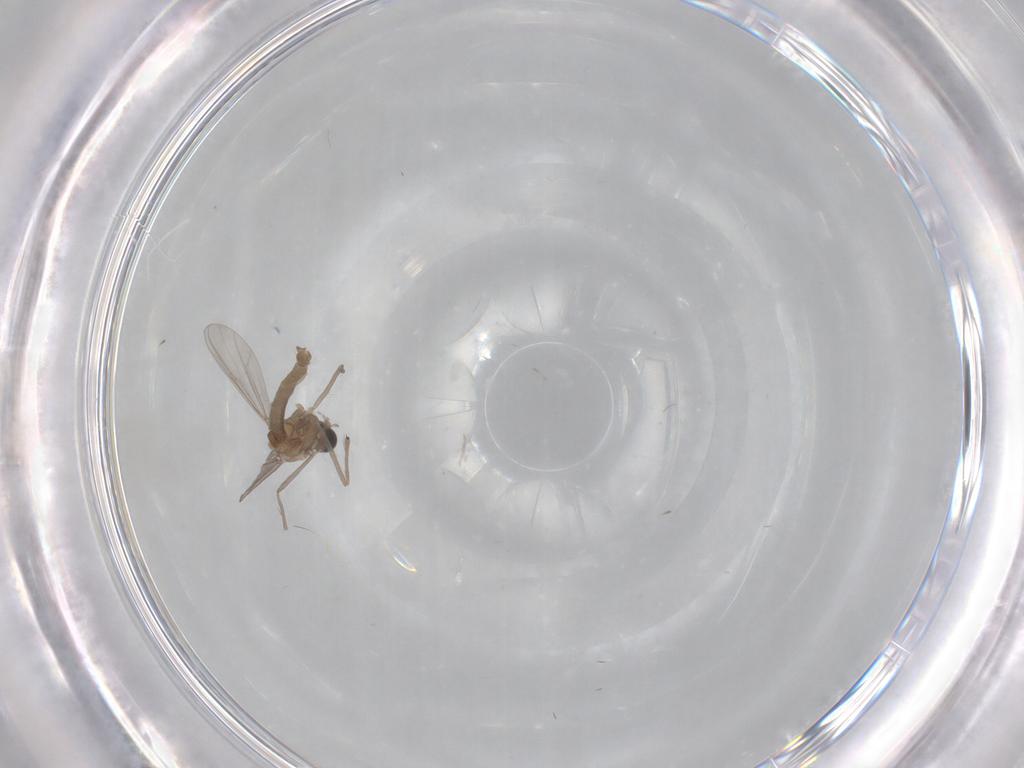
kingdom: Animalia
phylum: Arthropoda
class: Insecta
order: Diptera
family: Chironomidae
